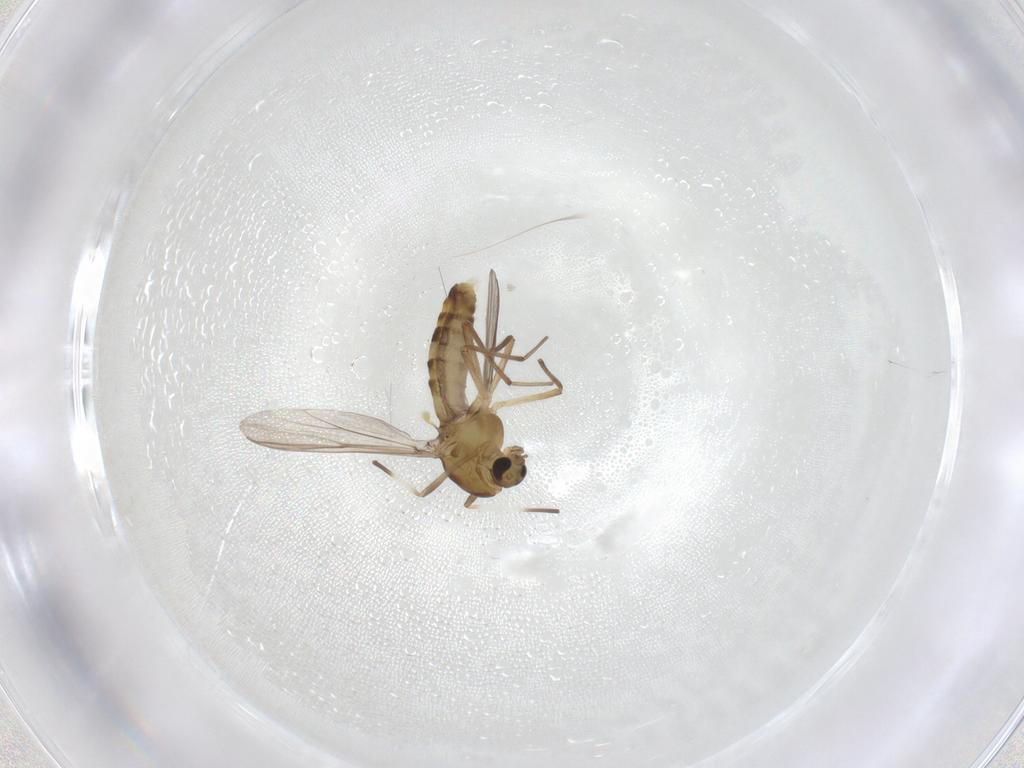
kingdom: Animalia
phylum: Arthropoda
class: Insecta
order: Diptera
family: Chironomidae
